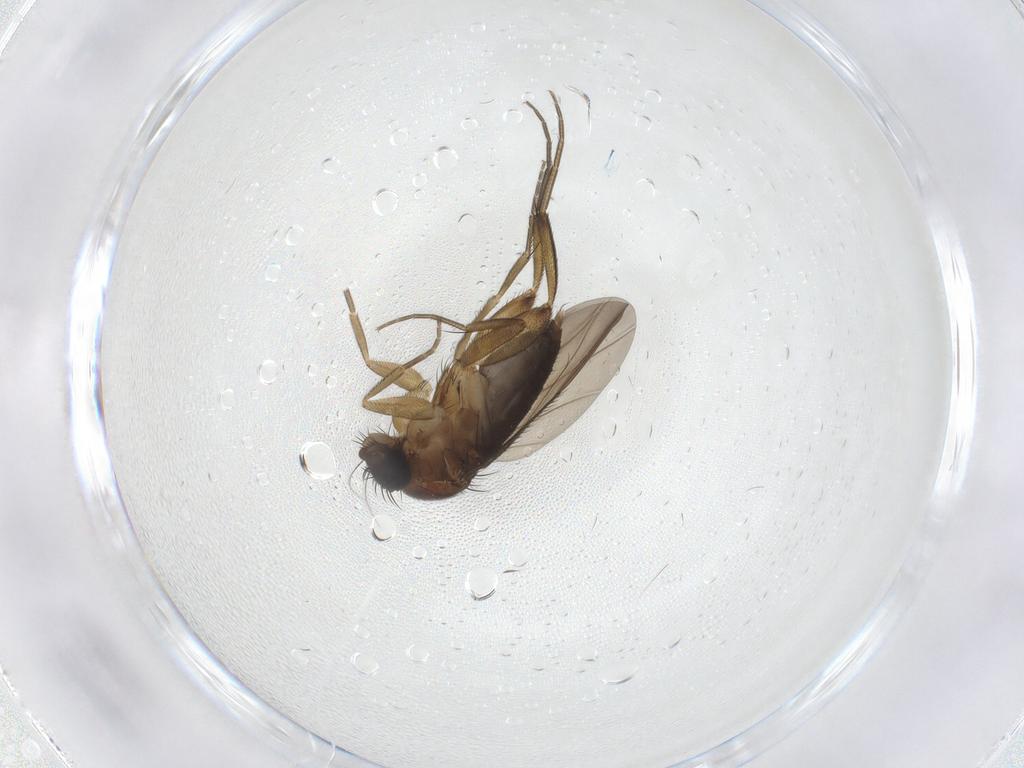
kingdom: Animalia
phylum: Arthropoda
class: Insecta
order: Diptera
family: Phoridae
